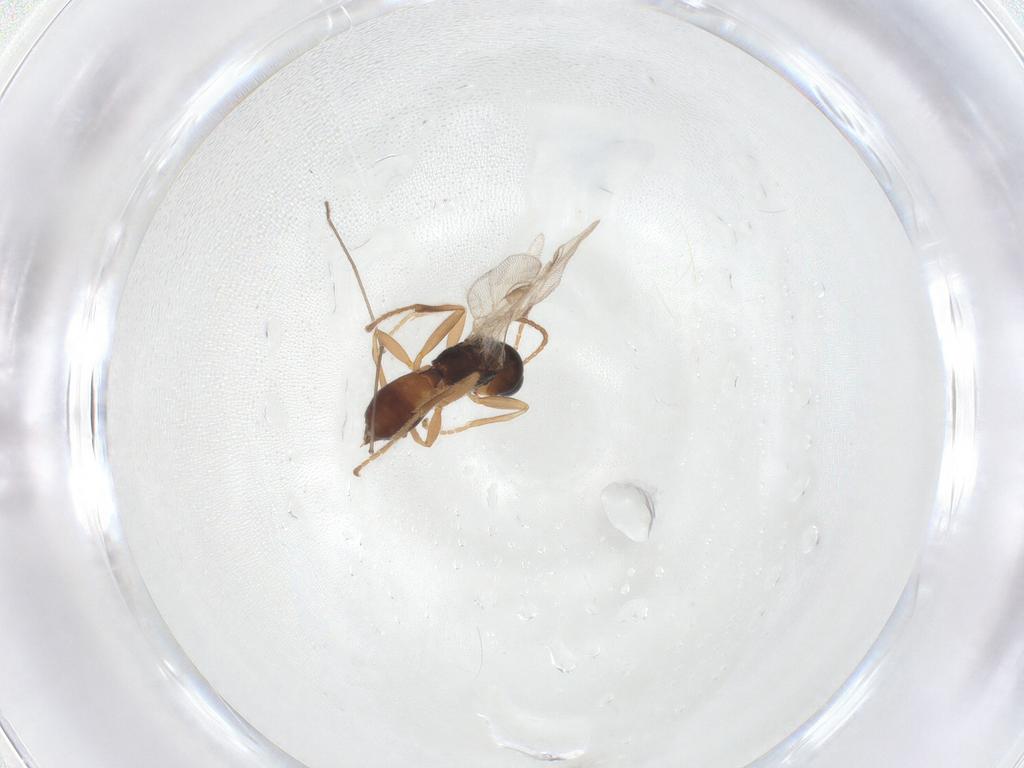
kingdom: Animalia
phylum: Arthropoda
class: Insecta
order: Hymenoptera
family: Braconidae
